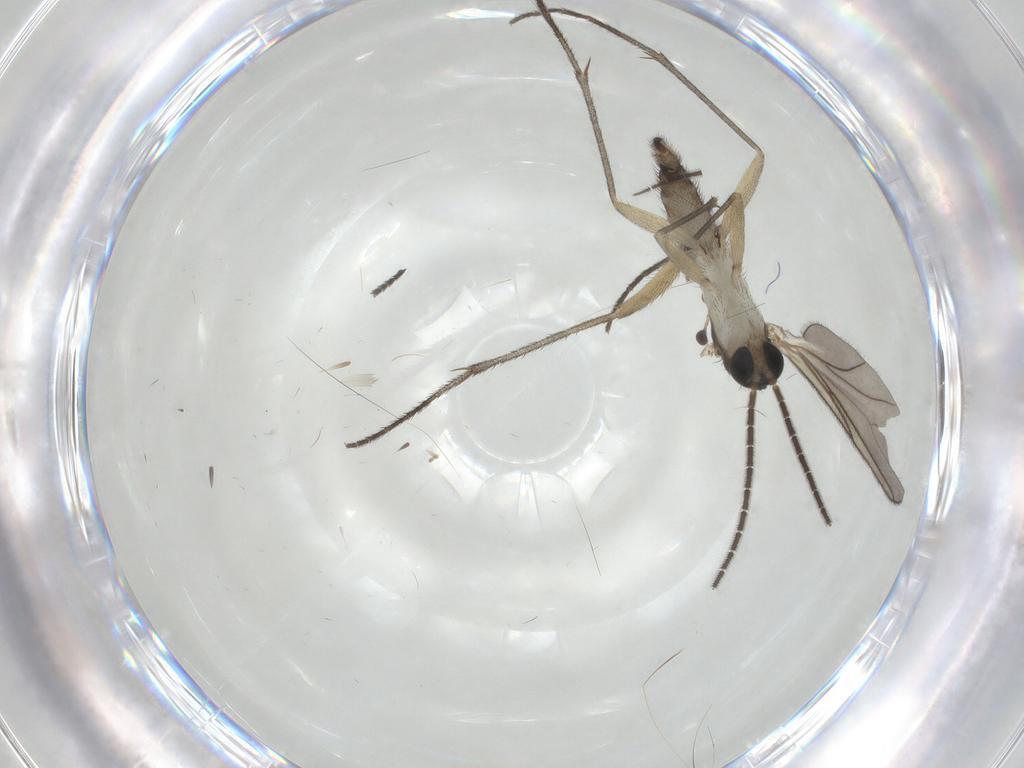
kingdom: Animalia
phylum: Arthropoda
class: Insecta
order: Diptera
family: Sciaridae
